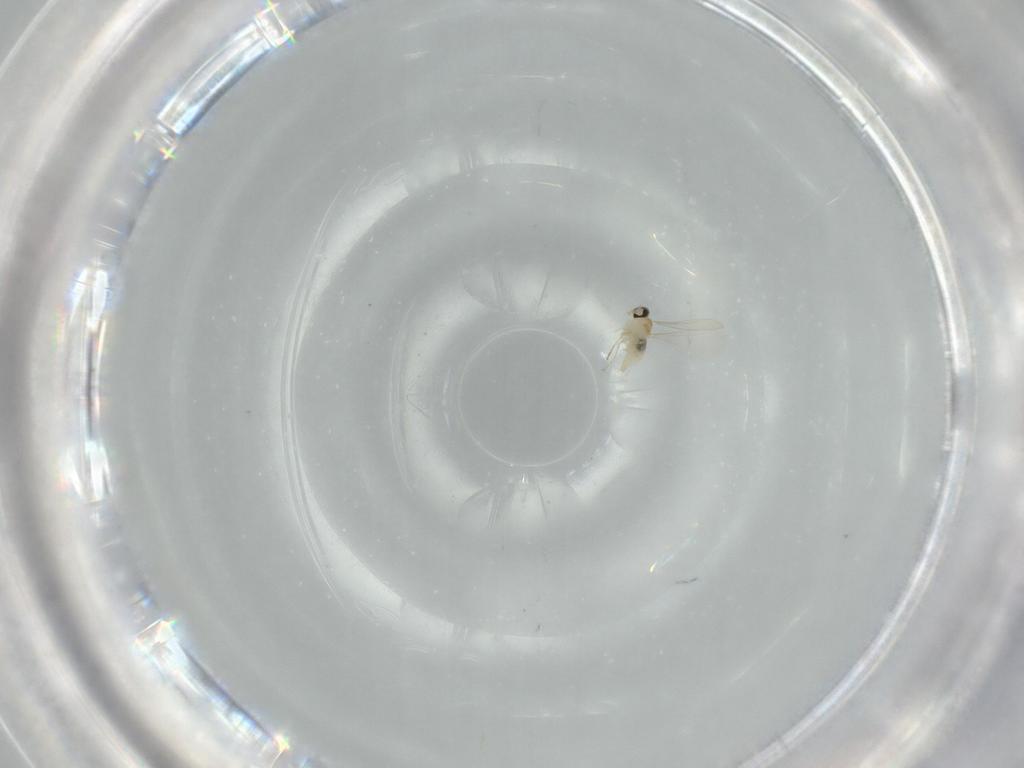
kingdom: Animalia
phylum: Arthropoda
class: Insecta
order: Diptera
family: Cecidomyiidae
